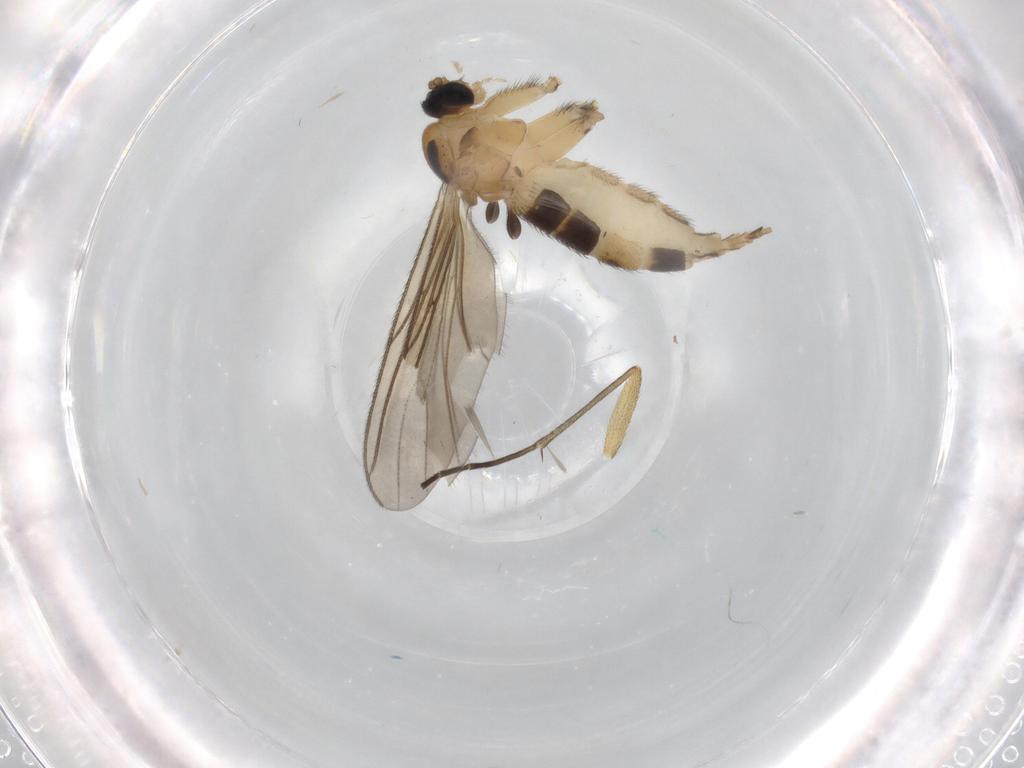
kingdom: Animalia
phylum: Arthropoda
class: Insecta
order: Diptera
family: Sciaridae
